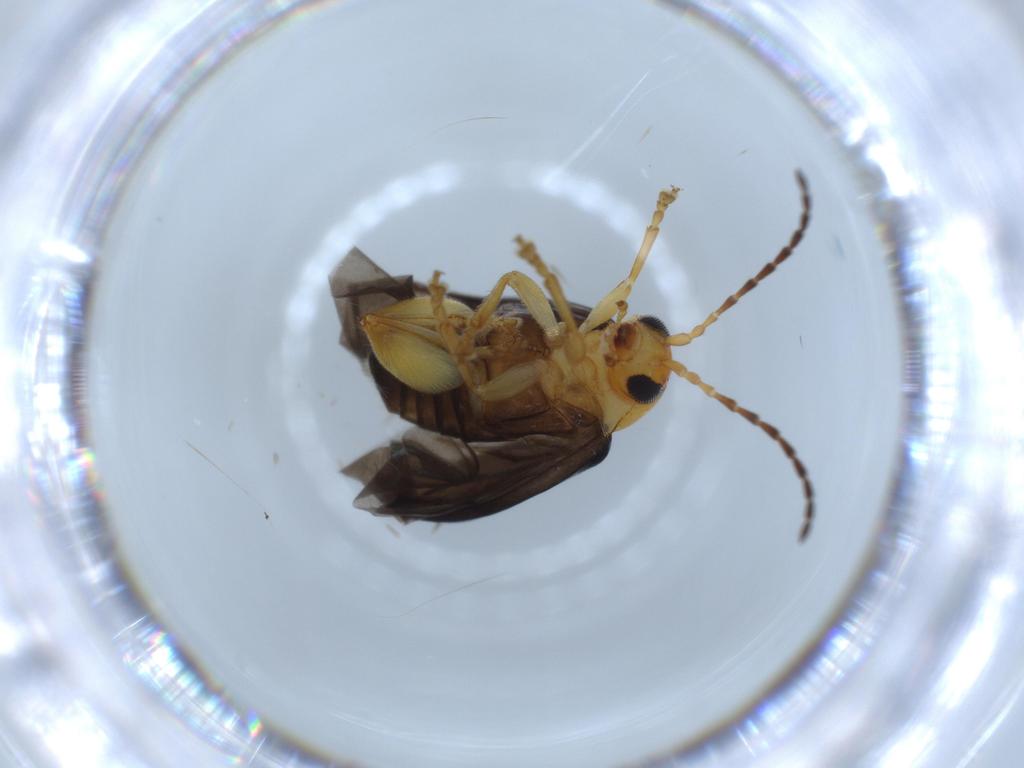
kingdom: Animalia
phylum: Arthropoda
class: Insecta
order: Coleoptera
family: Chrysomelidae
